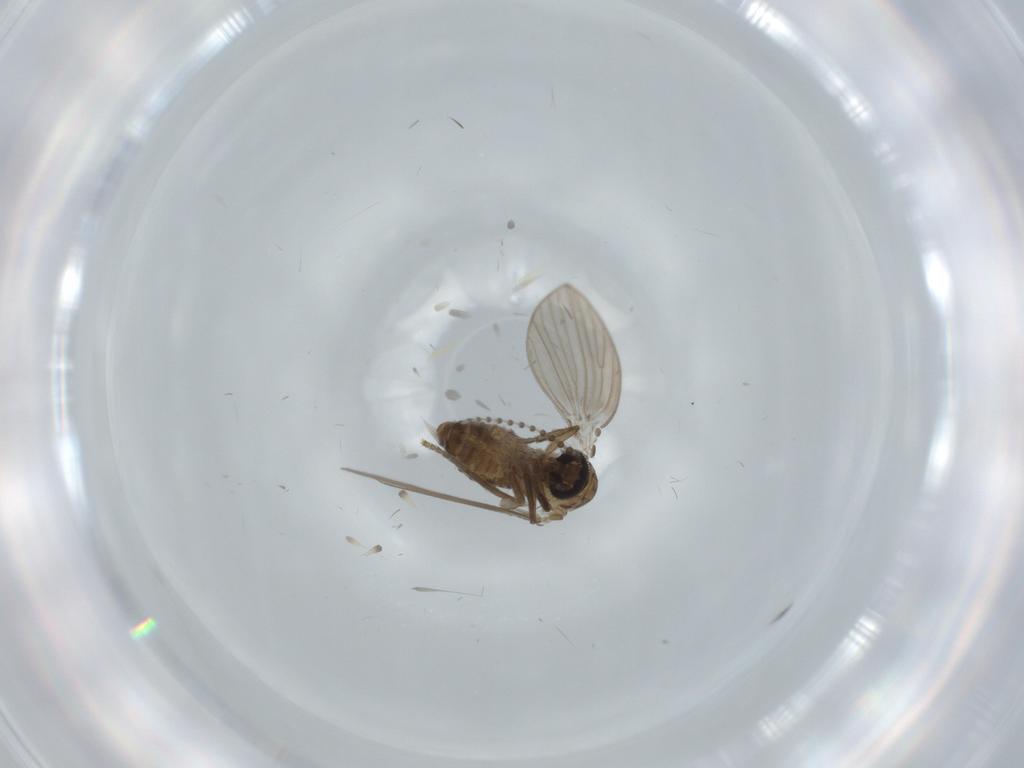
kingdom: Animalia
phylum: Arthropoda
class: Insecta
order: Diptera
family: Psychodidae
